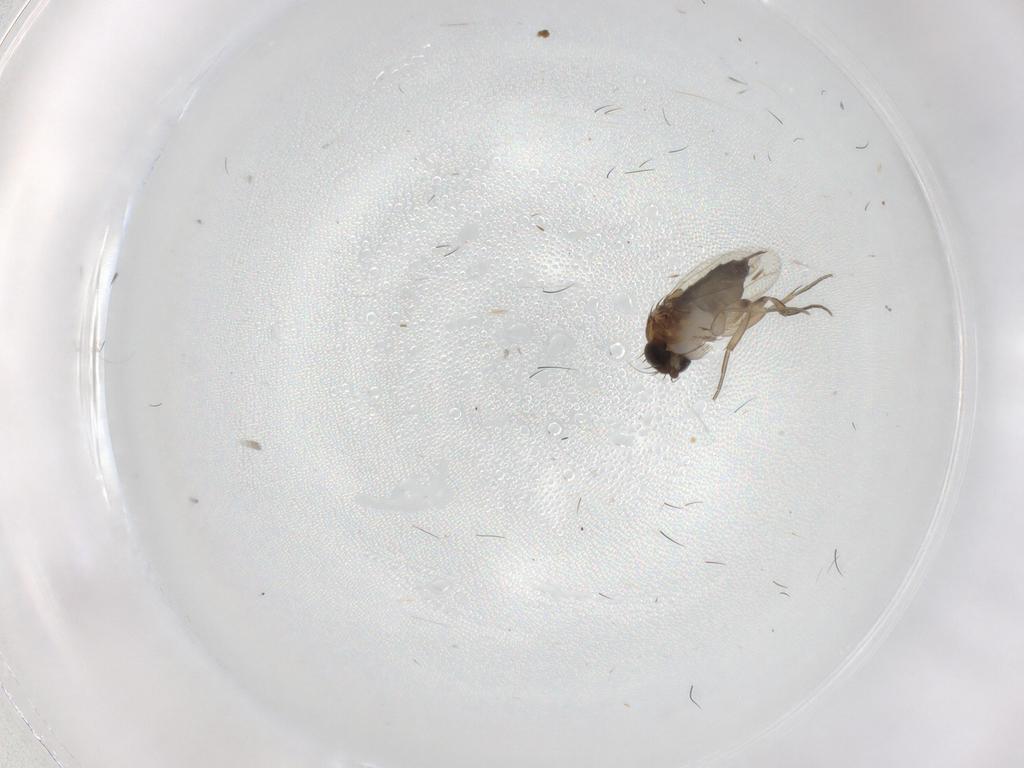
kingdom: Animalia
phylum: Arthropoda
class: Insecta
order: Diptera
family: Phoridae
